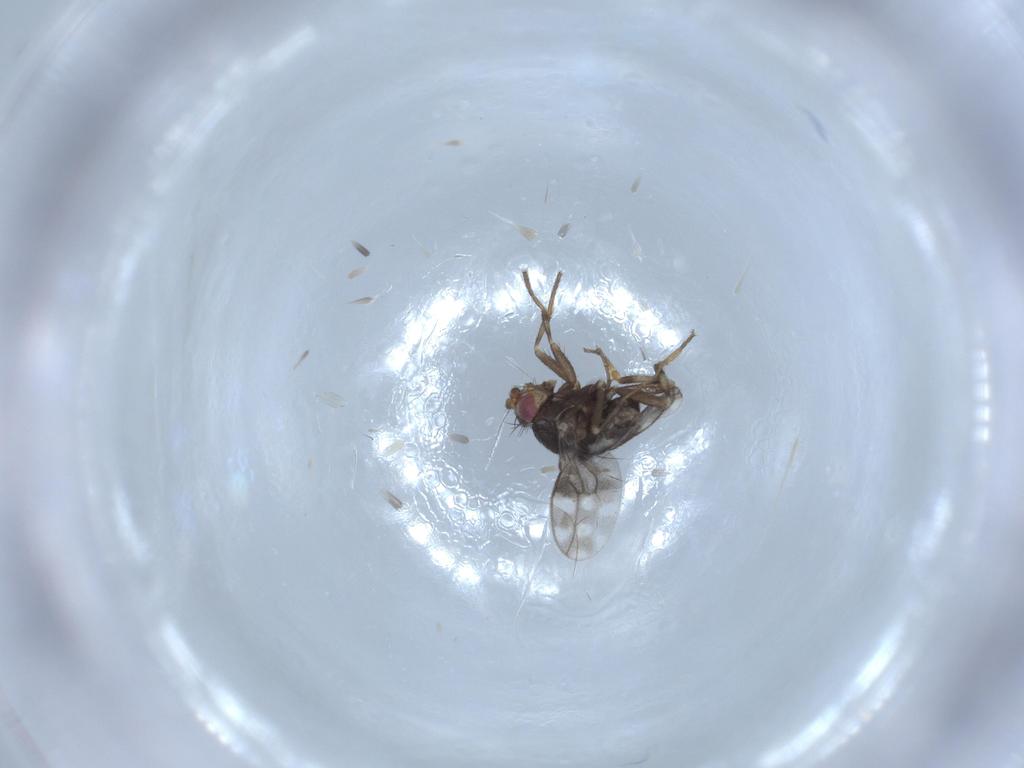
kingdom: Animalia
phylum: Arthropoda
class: Insecta
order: Diptera
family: Sphaeroceridae
